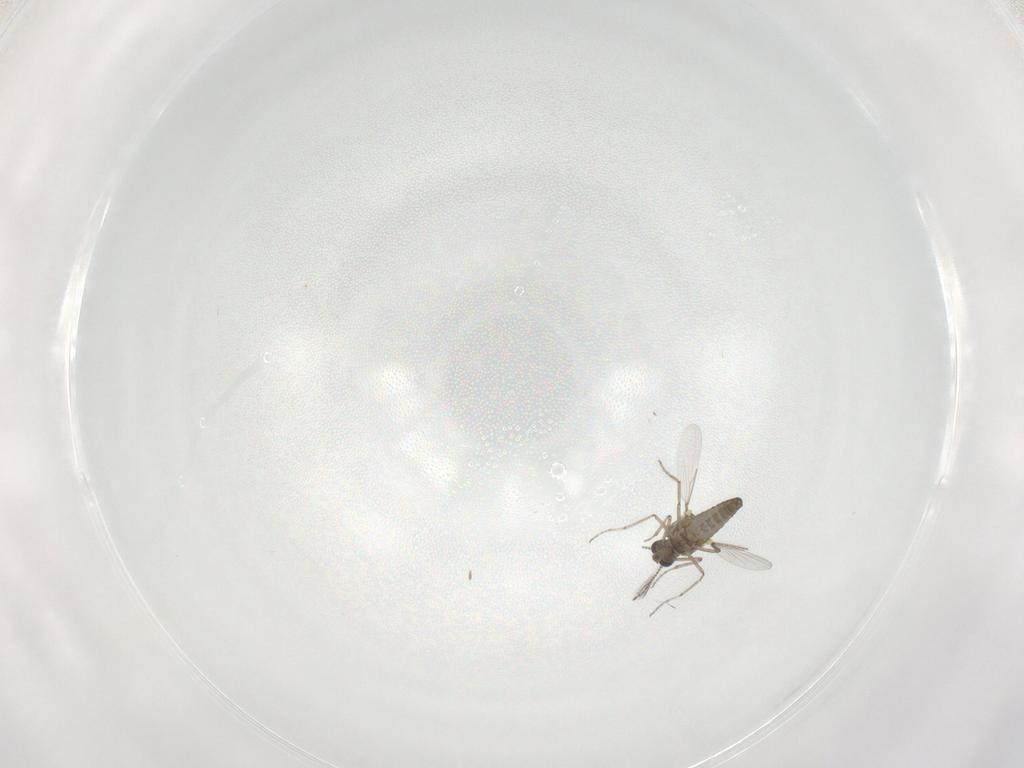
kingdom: Animalia
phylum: Arthropoda
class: Insecta
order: Diptera
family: Ceratopogonidae
